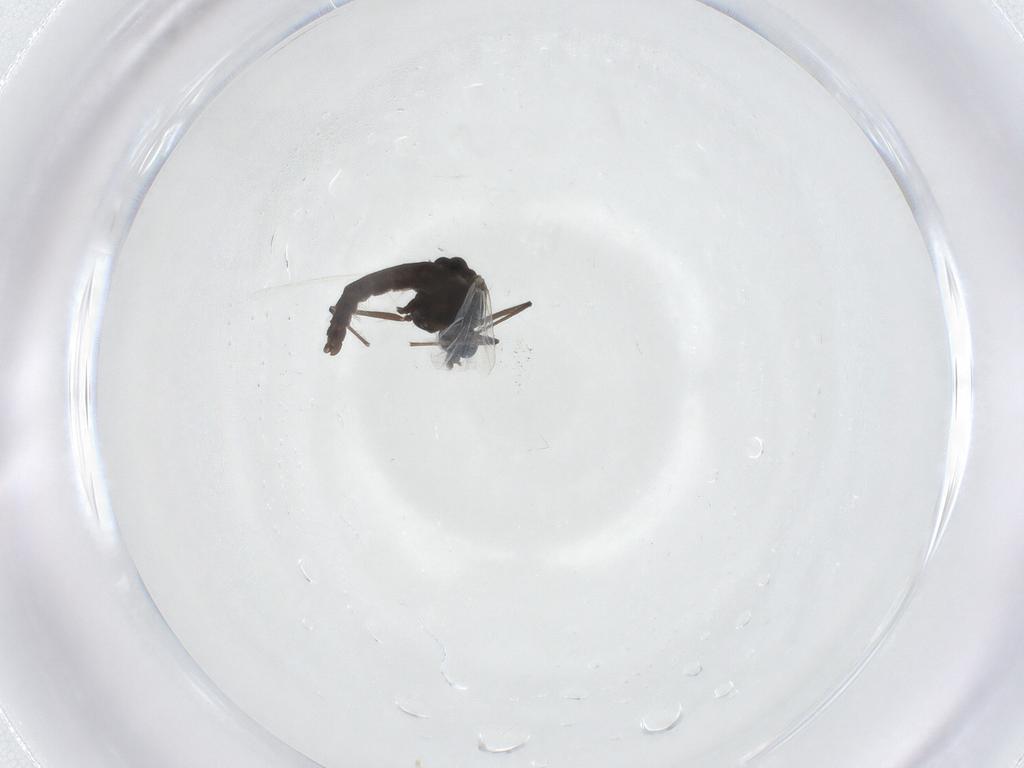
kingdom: Animalia
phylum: Arthropoda
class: Insecta
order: Diptera
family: Chironomidae
